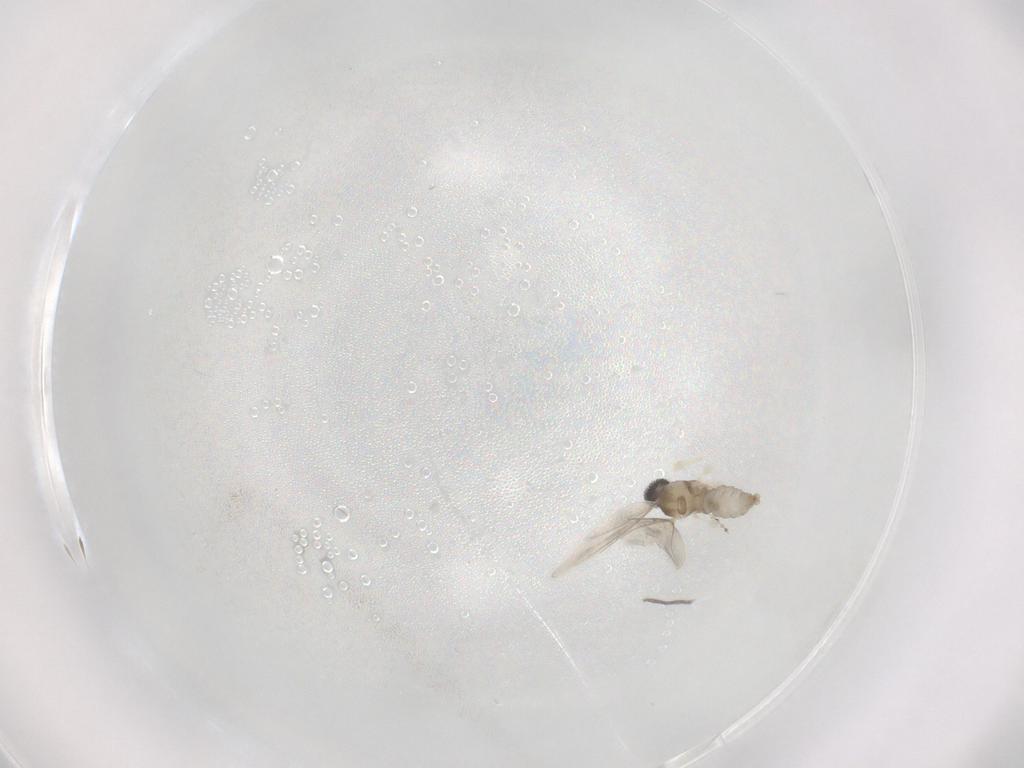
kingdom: Animalia
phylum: Arthropoda
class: Insecta
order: Diptera
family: Cecidomyiidae
